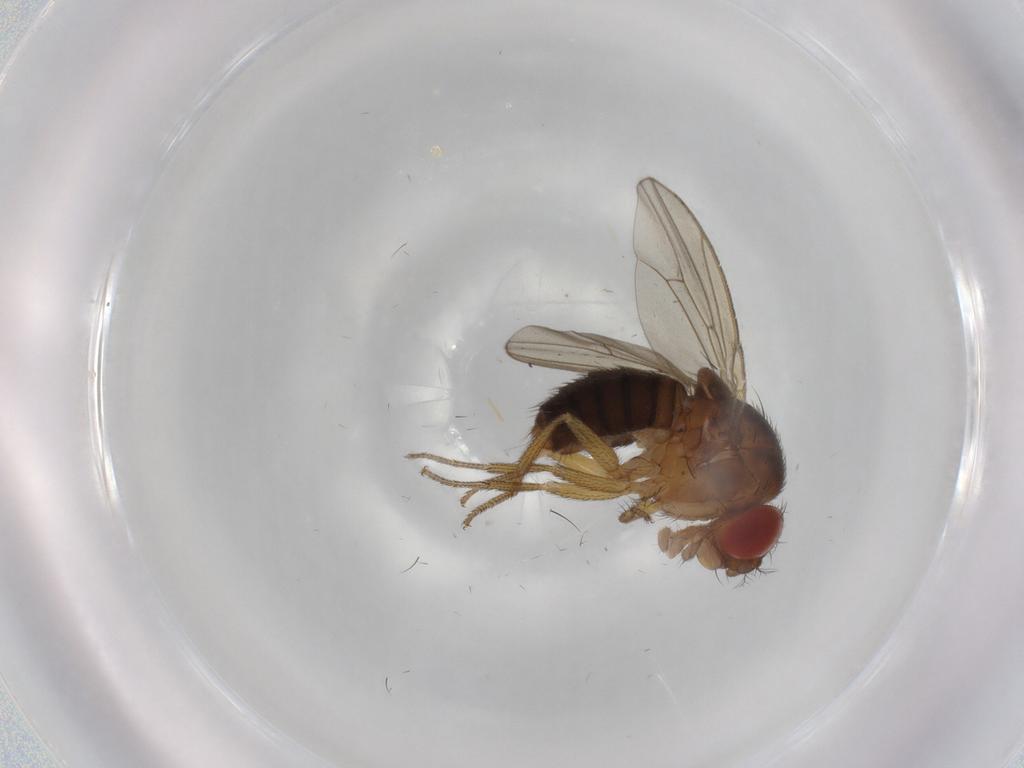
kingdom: Animalia
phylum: Arthropoda
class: Insecta
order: Diptera
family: Drosophilidae
